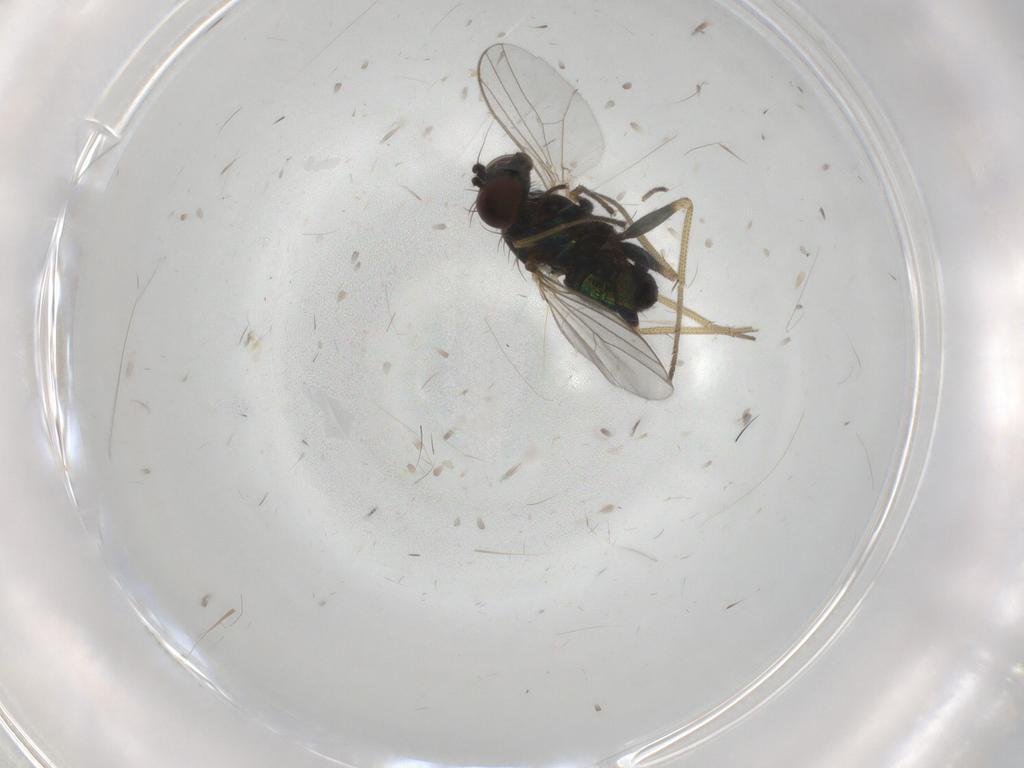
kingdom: Animalia
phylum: Arthropoda
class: Insecta
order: Diptera
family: Dolichopodidae
